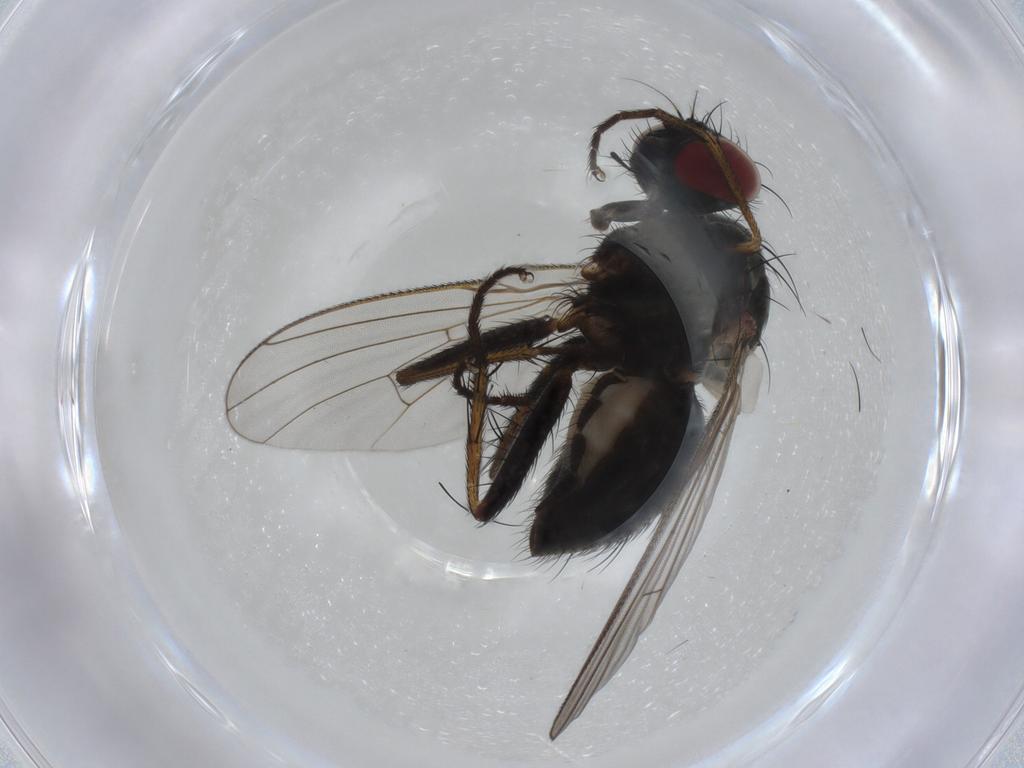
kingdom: Animalia
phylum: Arthropoda
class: Insecta
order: Diptera
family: Muscidae
